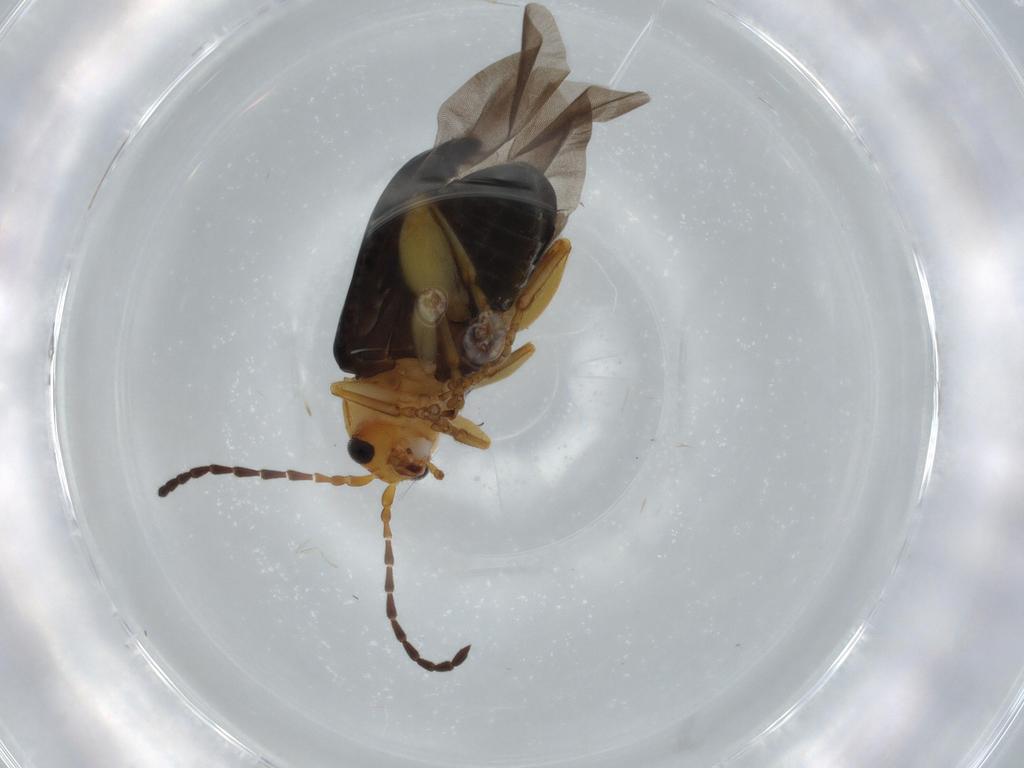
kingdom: Animalia
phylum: Arthropoda
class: Insecta
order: Coleoptera
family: Chrysomelidae
